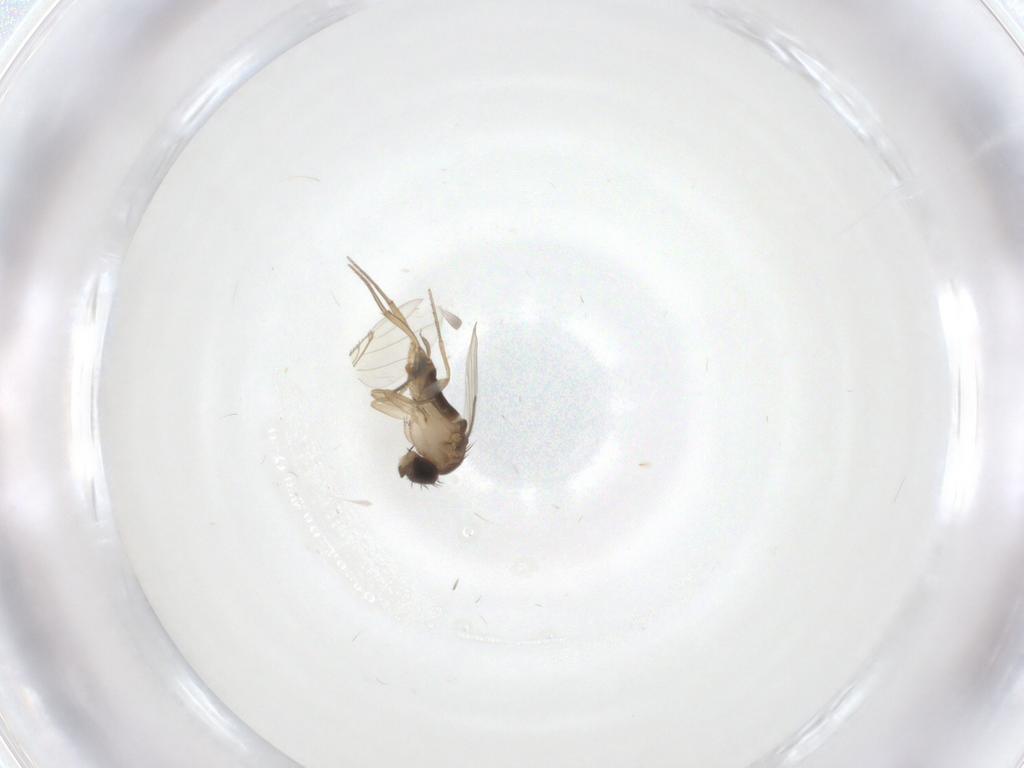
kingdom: Animalia
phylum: Arthropoda
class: Insecta
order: Diptera
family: Phoridae
